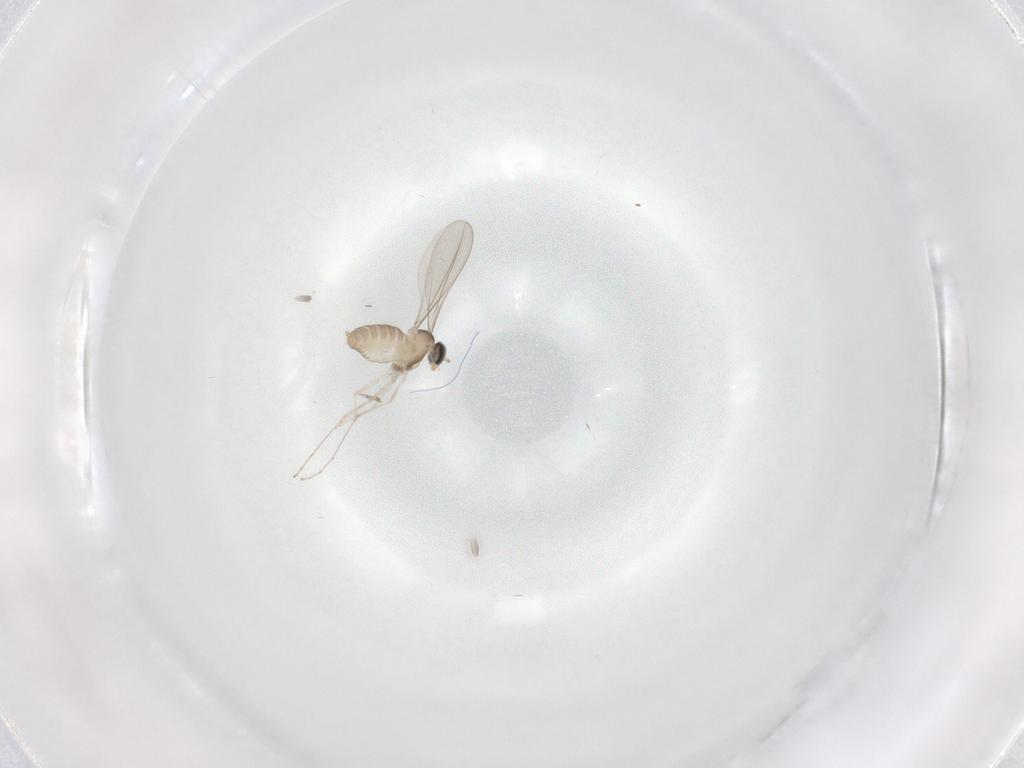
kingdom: Animalia
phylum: Arthropoda
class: Insecta
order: Diptera
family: Cecidomyiidae
